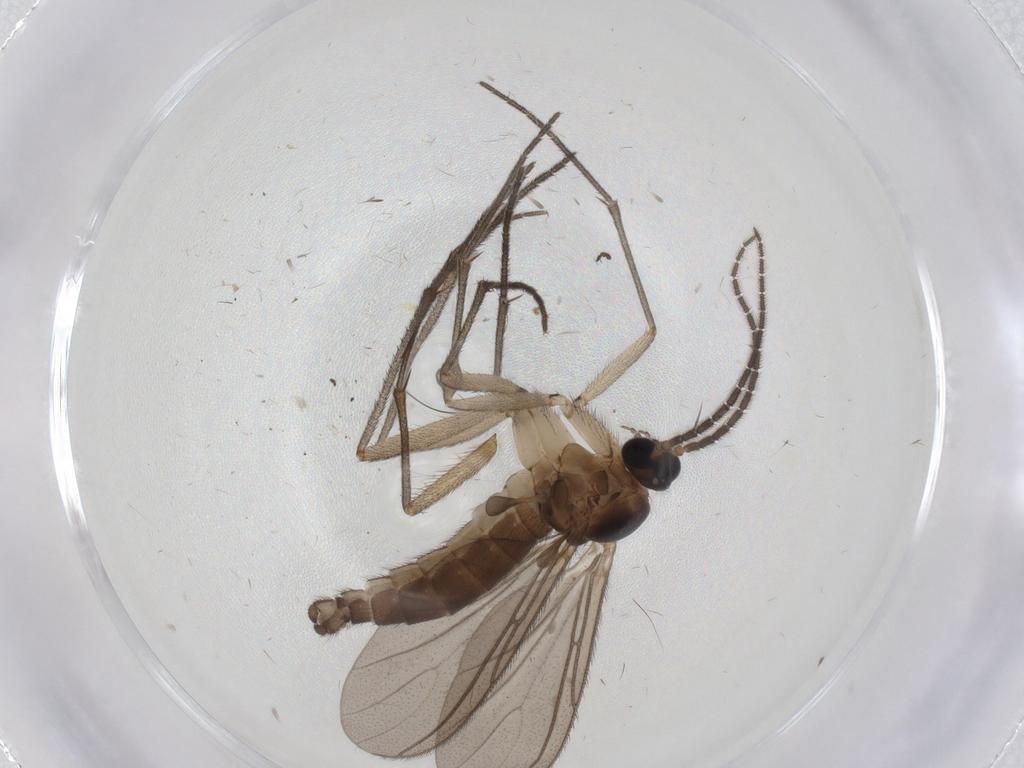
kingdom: Animalia
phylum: Arthropoda
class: Insecta
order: Diptera
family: Sciaridae
